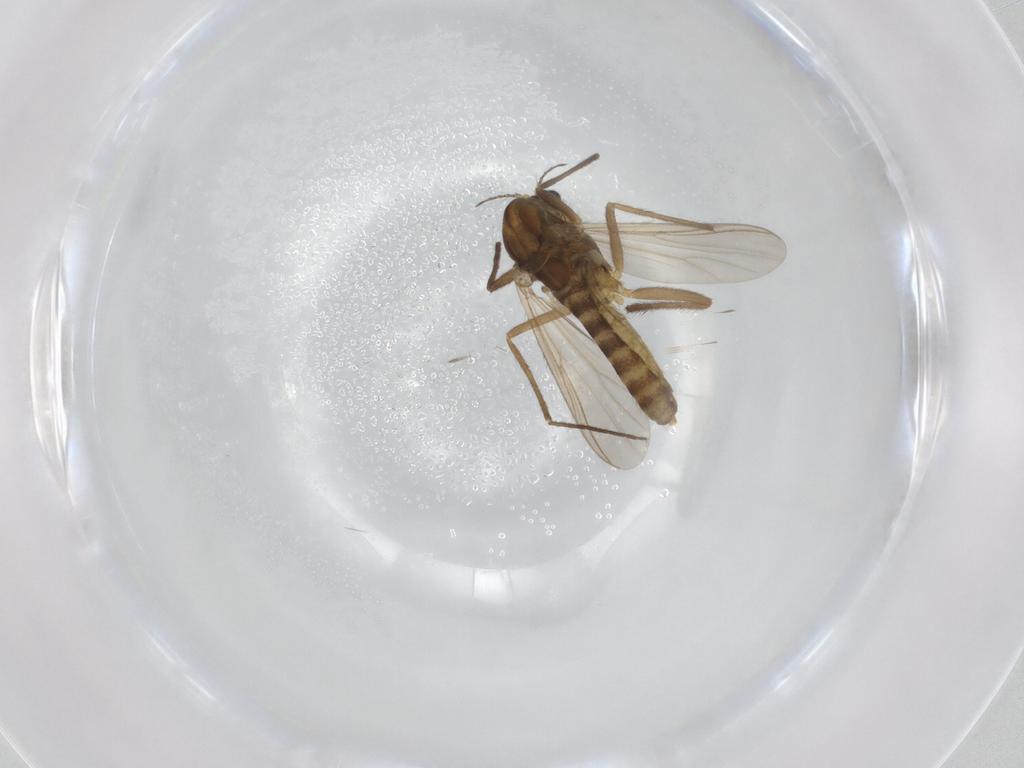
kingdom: Animalia
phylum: Arthropoda
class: Insecta
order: Diptera
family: Chironomidae
